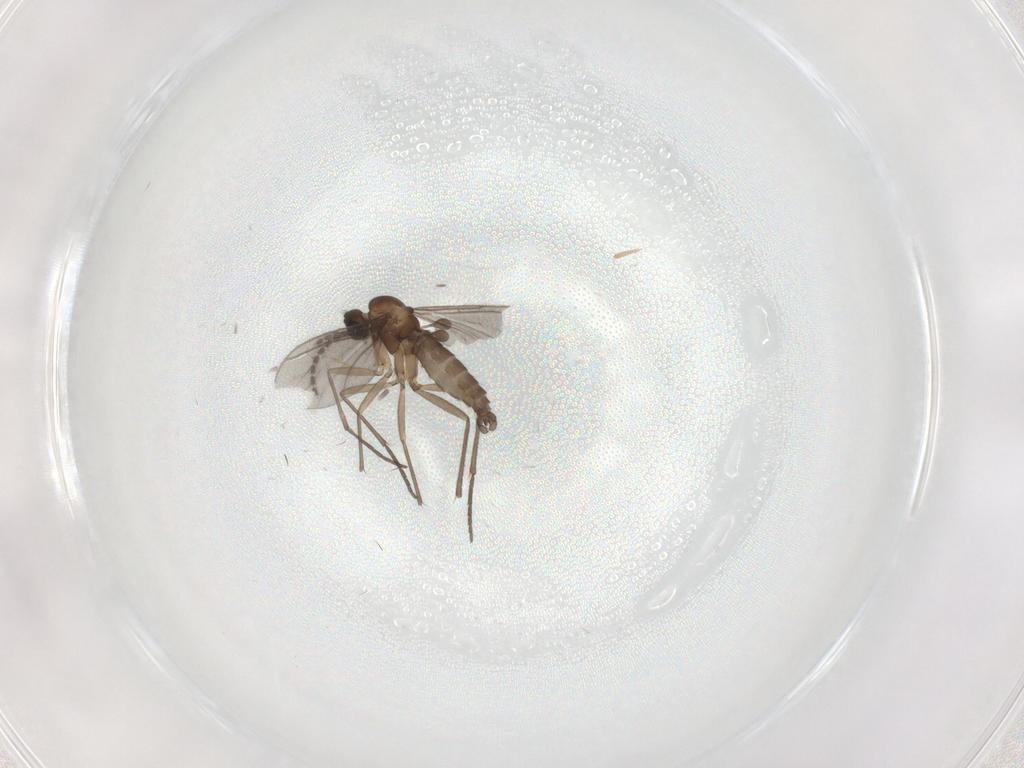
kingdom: Animalia
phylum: Arthropoda
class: Insecta
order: Diptera
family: Sciaridae
